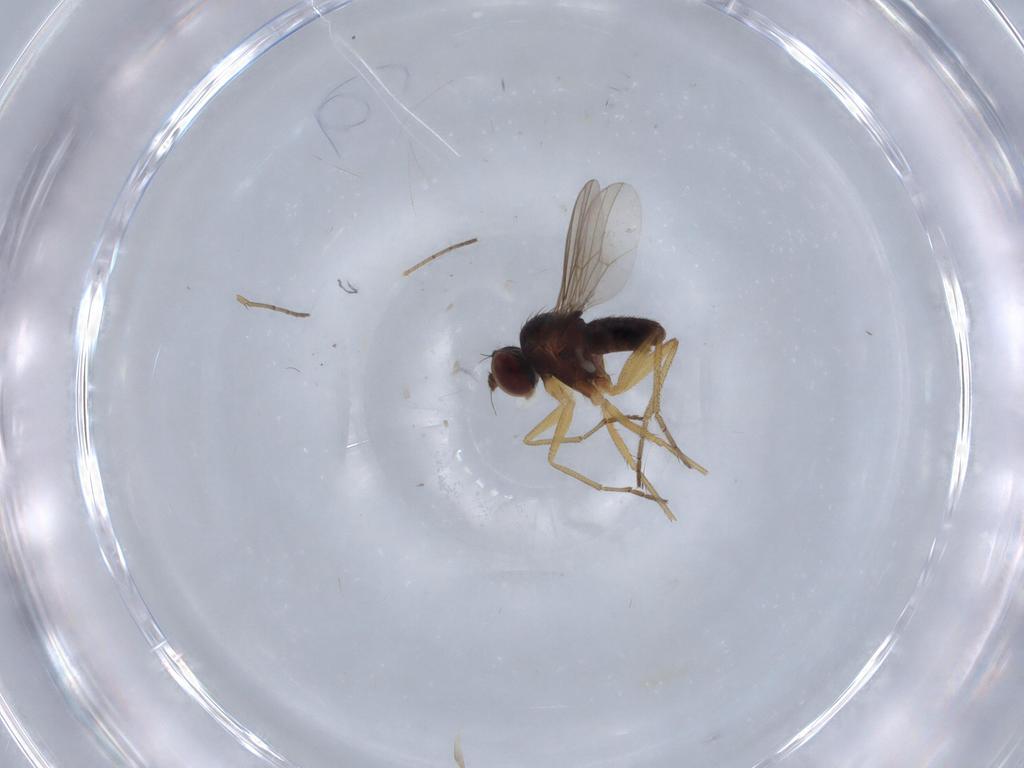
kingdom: Animalia
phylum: Arthropoda
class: Insecta
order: Diptera
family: Dolichopodidae
